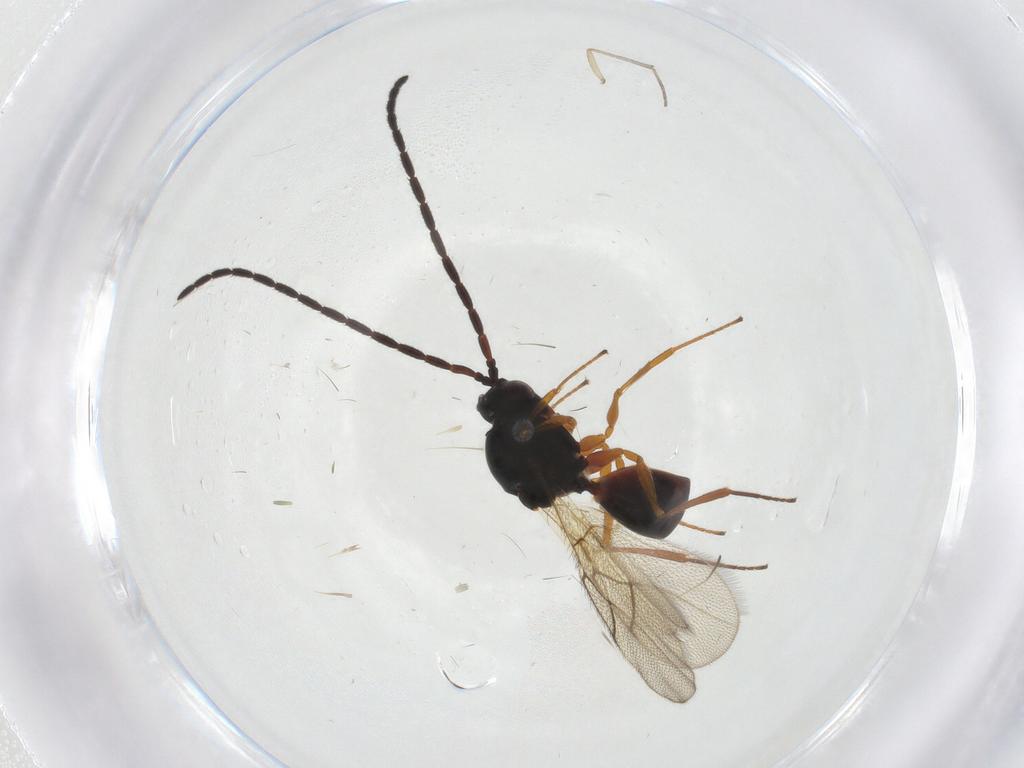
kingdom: Animalia
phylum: Arthropoda
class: Insecta
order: Hymenoptera
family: Figitidae
